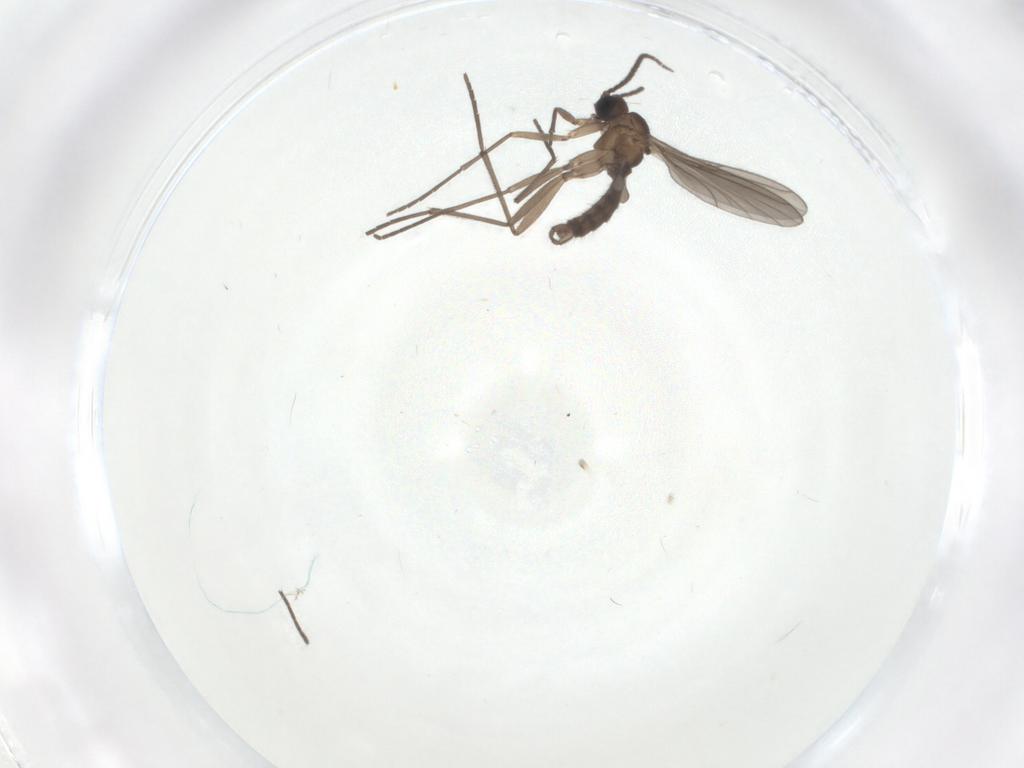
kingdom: Animalia
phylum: Arthropoda
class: Insecta
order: Diptera
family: Sciaridae
